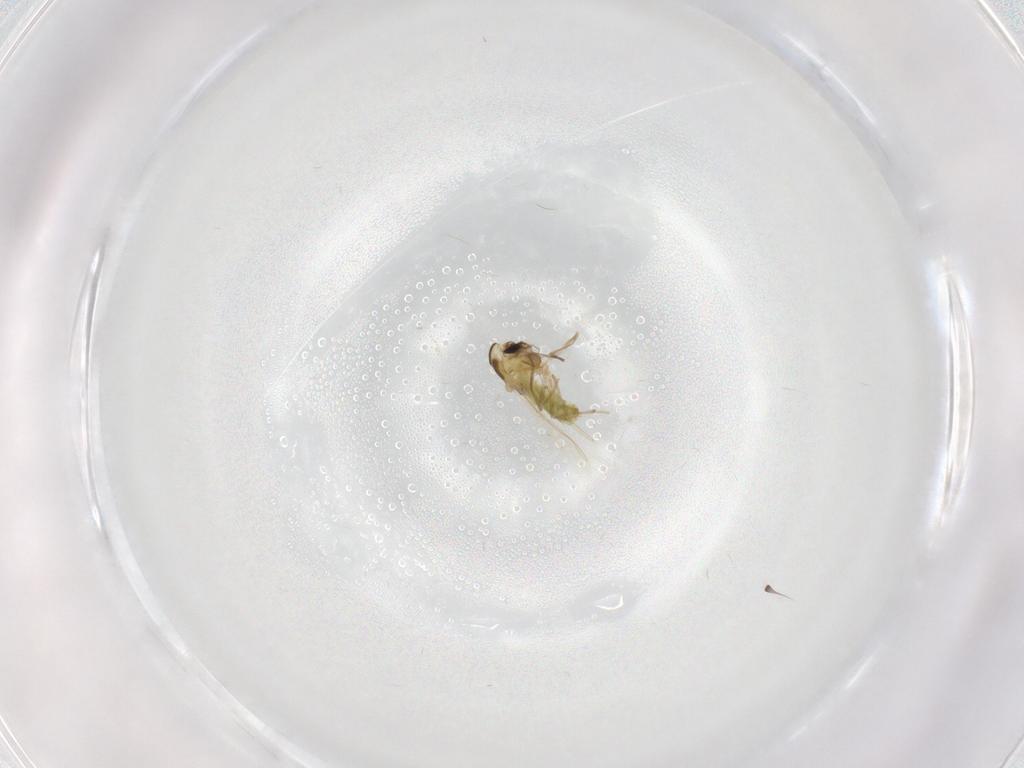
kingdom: Animalia
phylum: Arthropoda
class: Insecta
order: Diptera
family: Chironomidae
